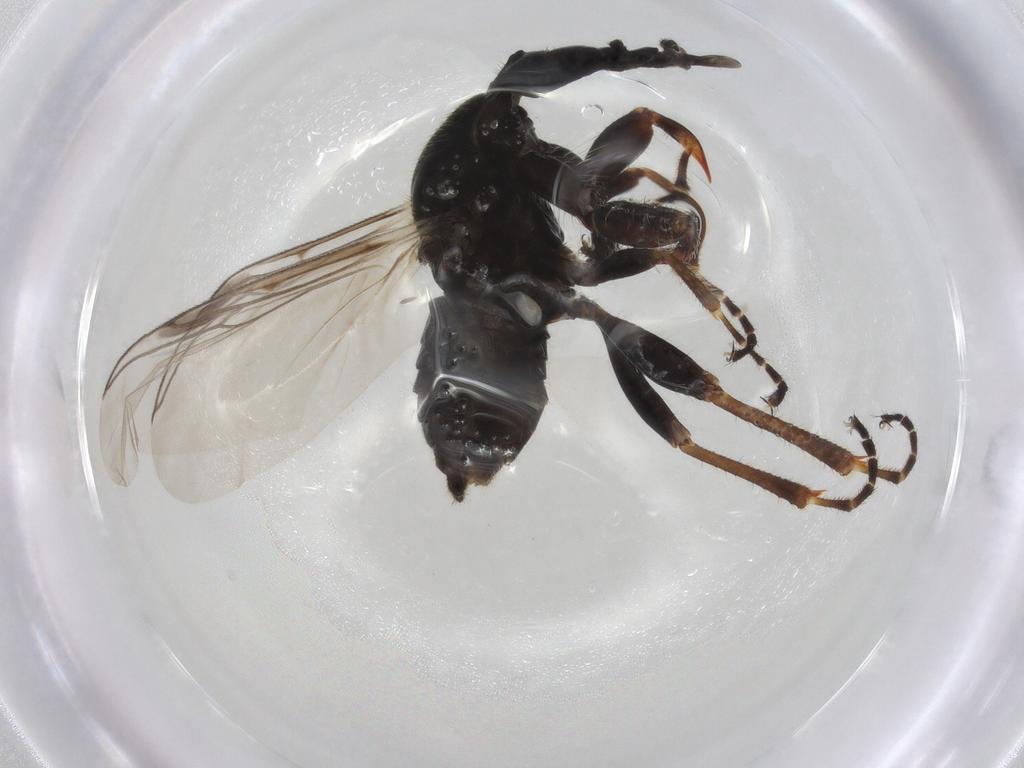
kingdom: Animalia
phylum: Arthropoda
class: Insecta
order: Diptera
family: Bibionidae
